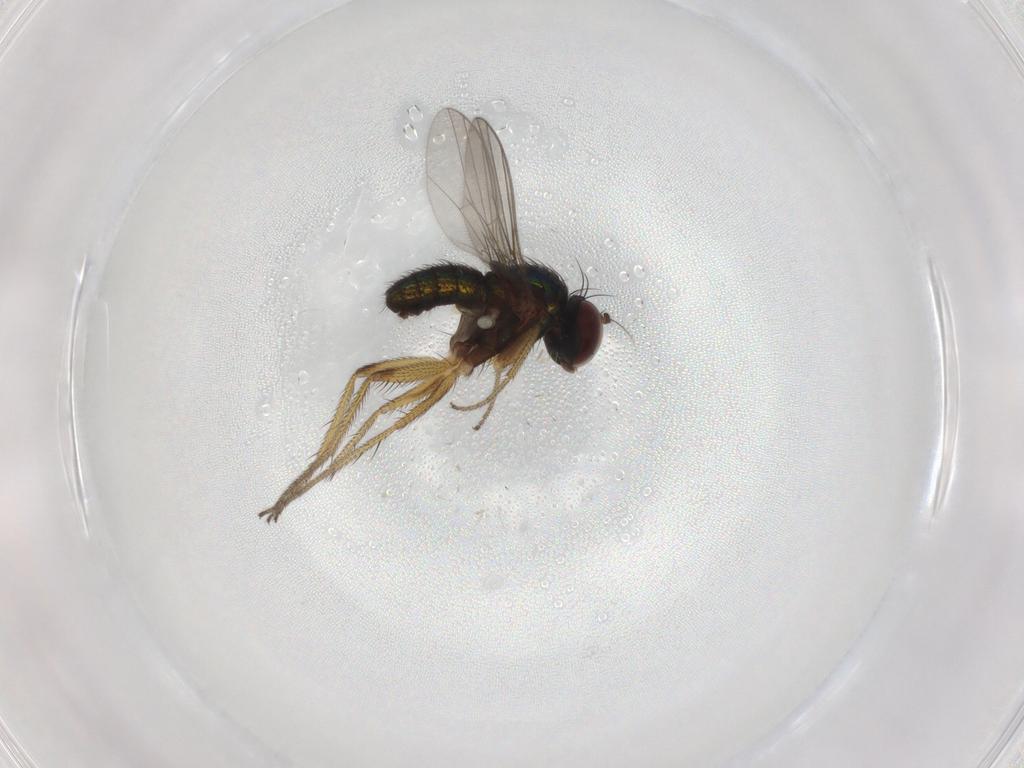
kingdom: Animalia
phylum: Arthropoda
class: Insecta
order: Diptera
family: Dolichopodidae
